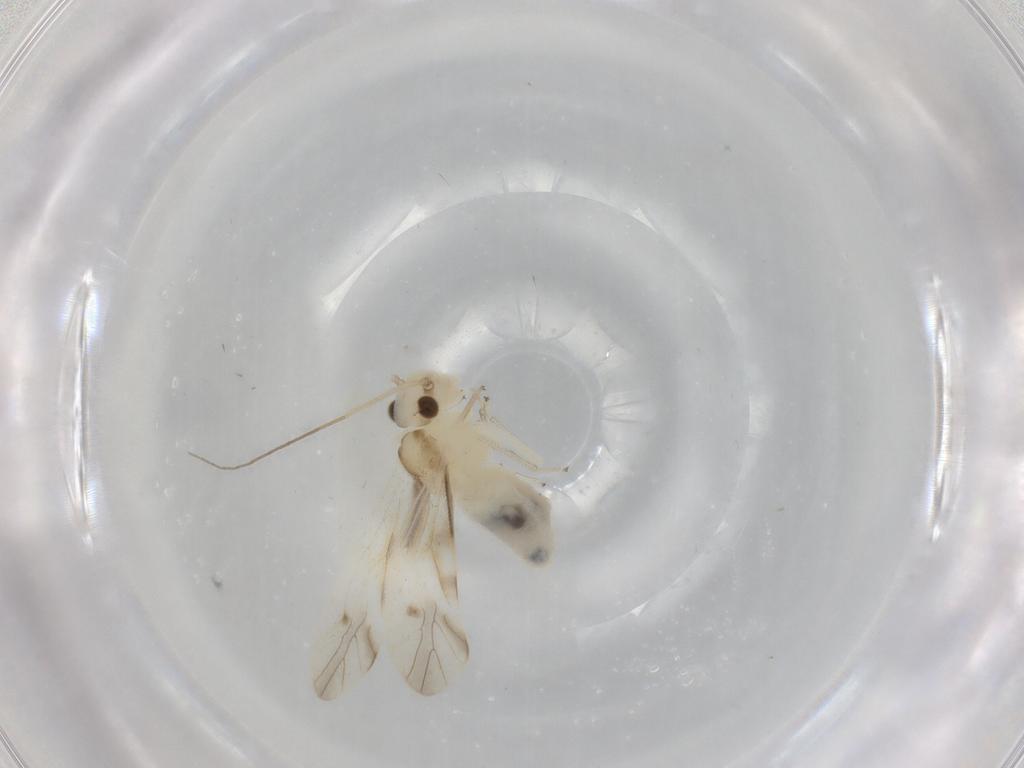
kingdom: Animalia
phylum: Arthropoda
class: Insecta
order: Psocodea
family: Caeciliusidae
